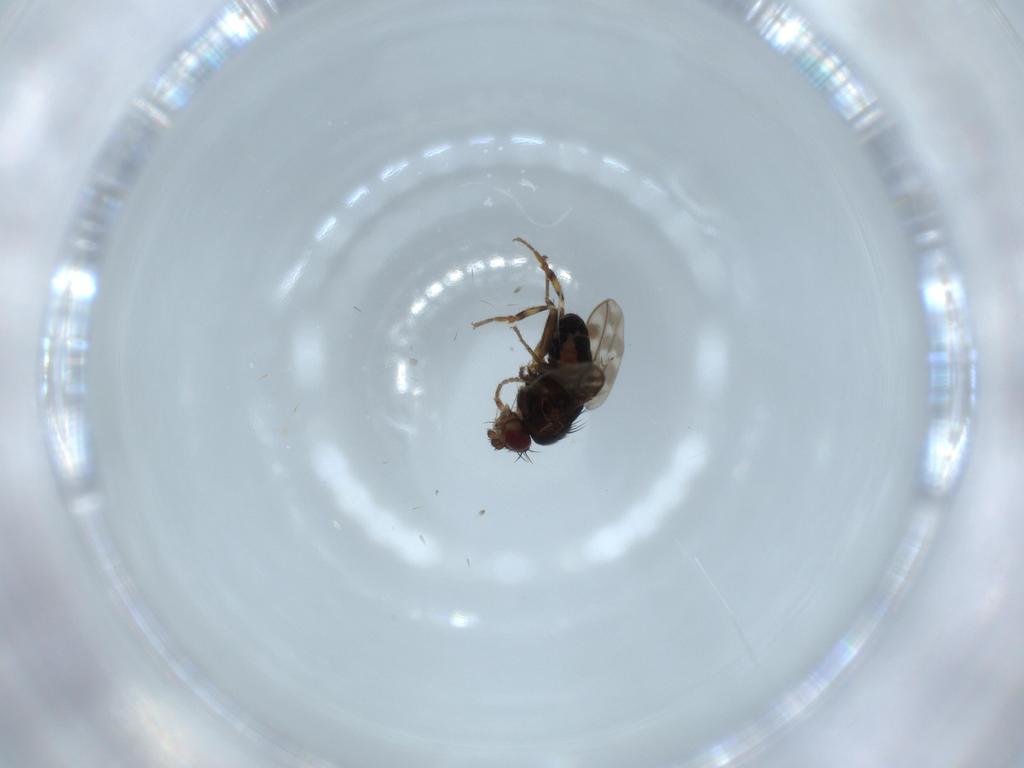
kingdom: Animalia
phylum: Arthropoda
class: Insecta
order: Diptera
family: Sphaeroceridae
